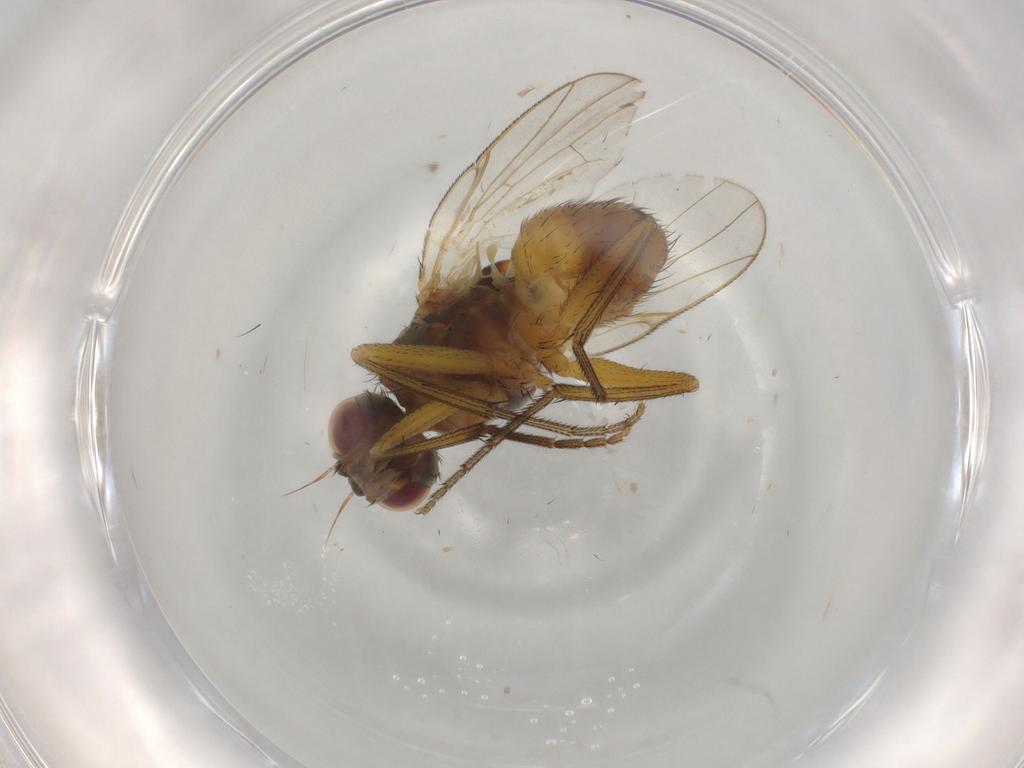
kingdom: Animalia
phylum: Arthropoda
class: Insecta
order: Diptera
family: Muscidae
